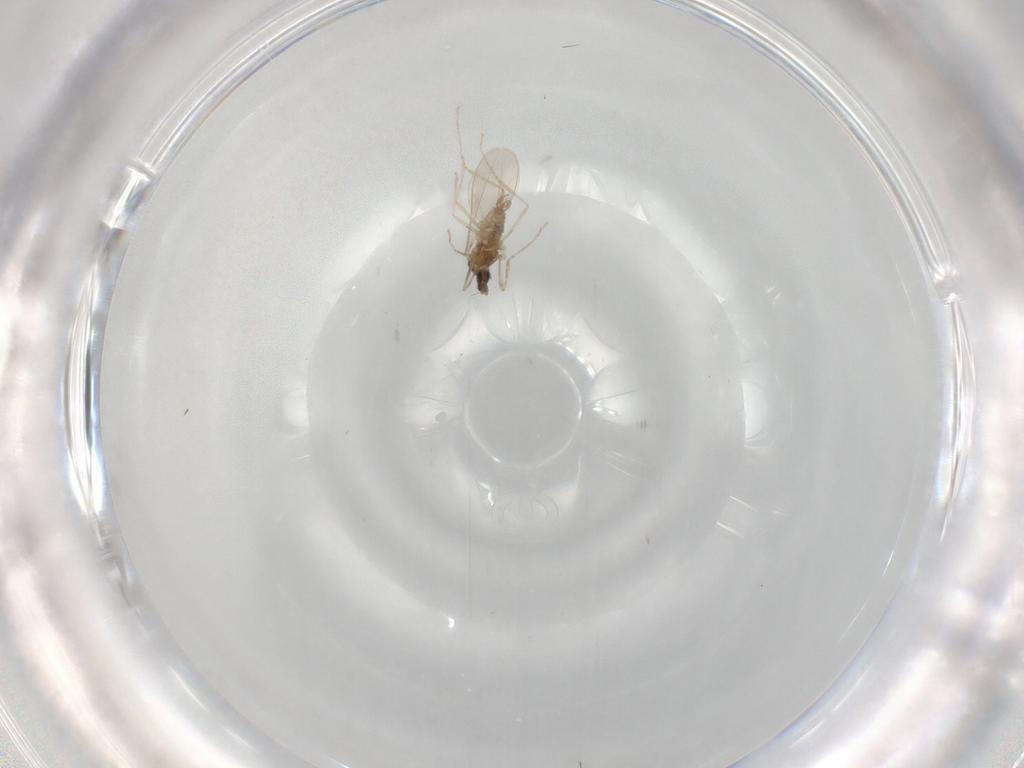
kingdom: Animalia
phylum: Arthropoda
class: Insecta
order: Diptera
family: Cecidomyiidae
